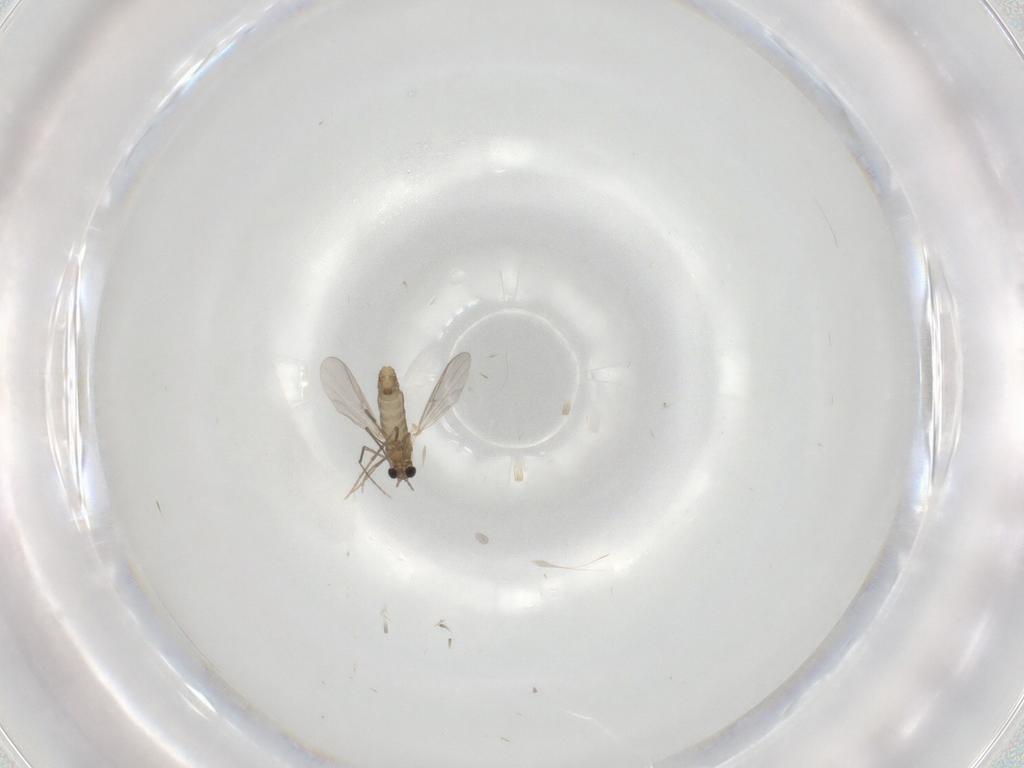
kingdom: Animalia
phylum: Arthropoda
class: Insecta
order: Diptera
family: Chironomidae
